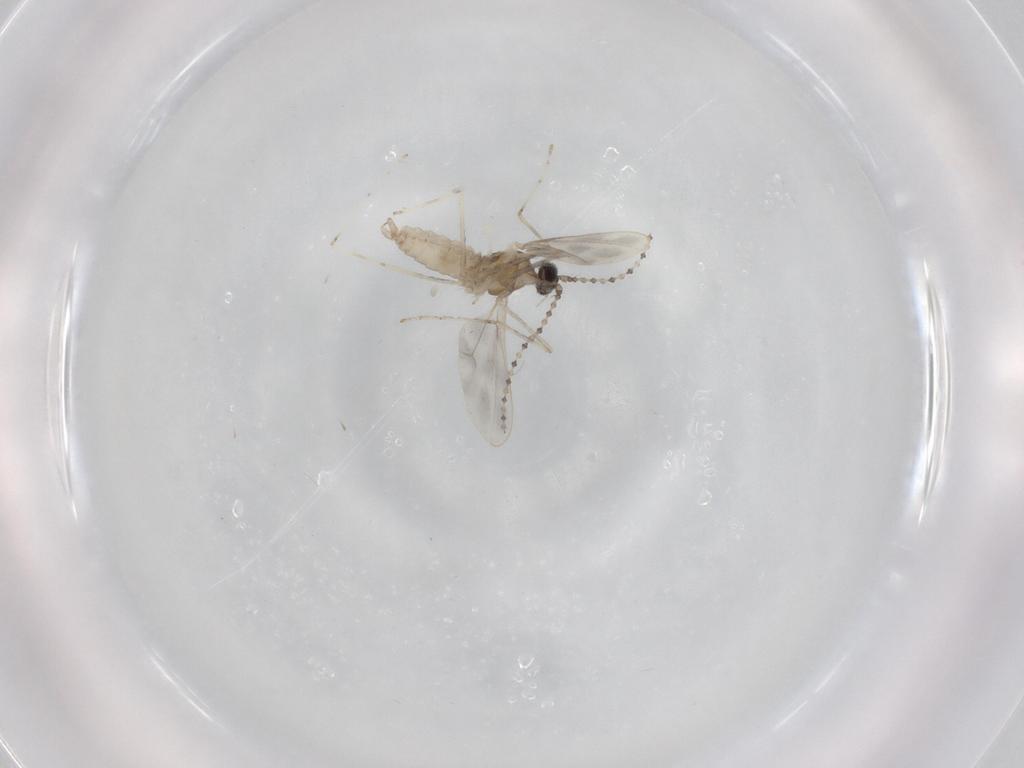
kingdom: Animalia
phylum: Arthropoda
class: Insecta
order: Diptera
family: Cecidomyiidae
